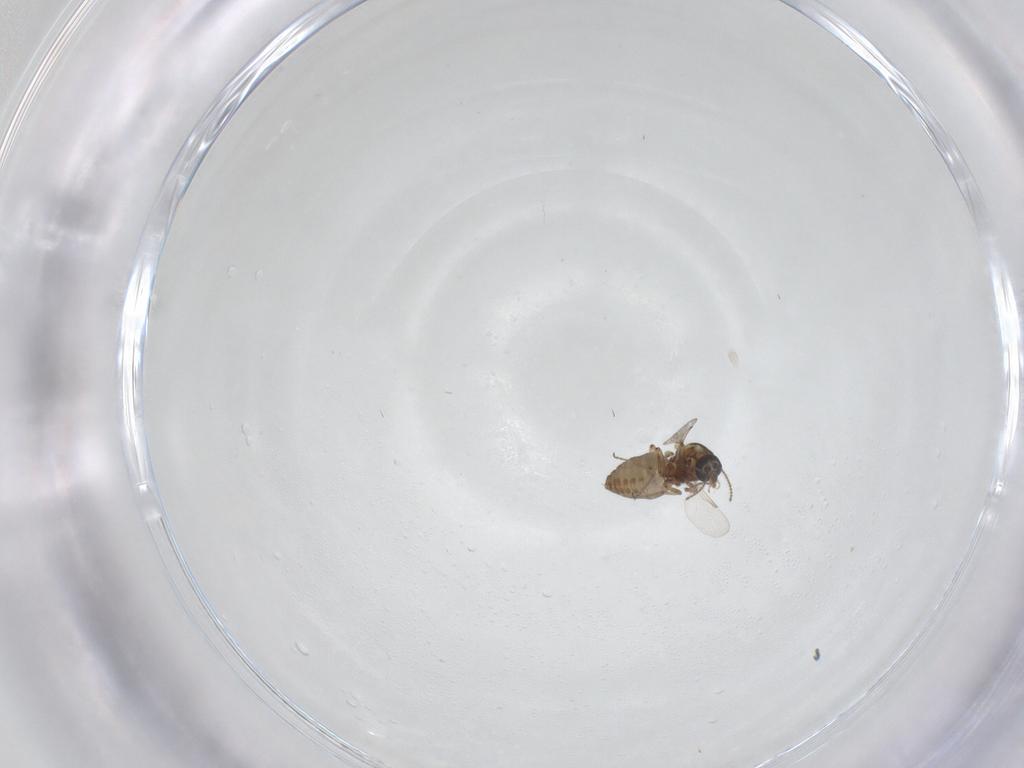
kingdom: Animalia
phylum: Arthropoda
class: Insecta
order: Diptera
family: Ceratopogonidae
